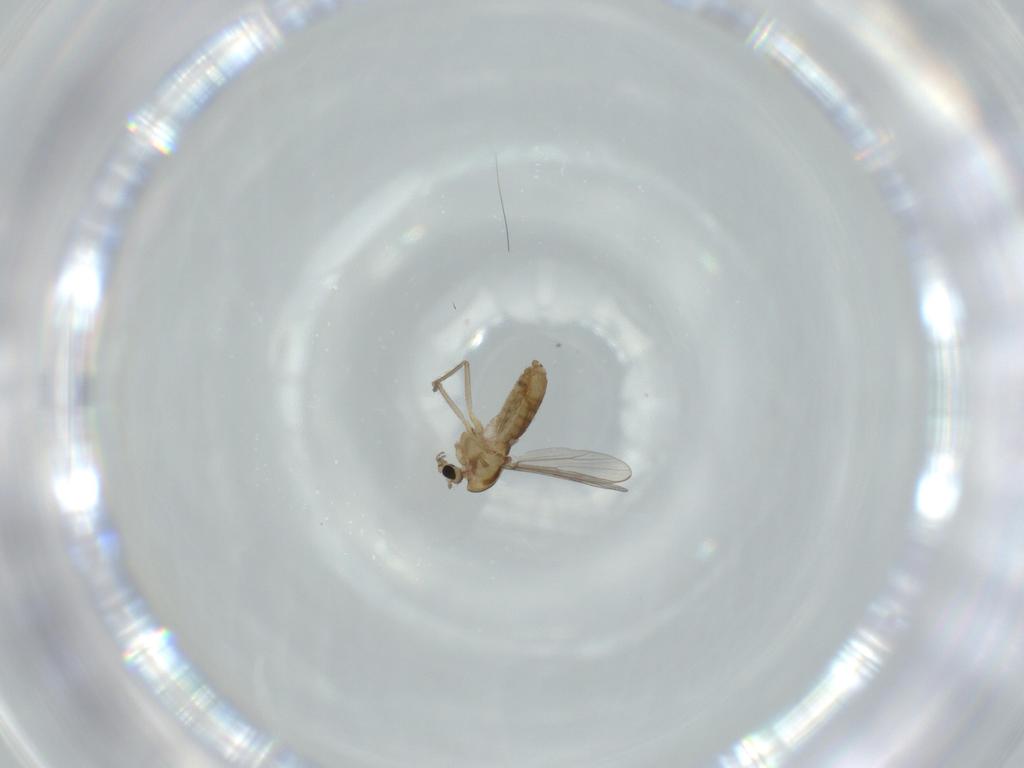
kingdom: Animalia
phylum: Arthropoda
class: Insecta
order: Diptera
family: Chironomidae
